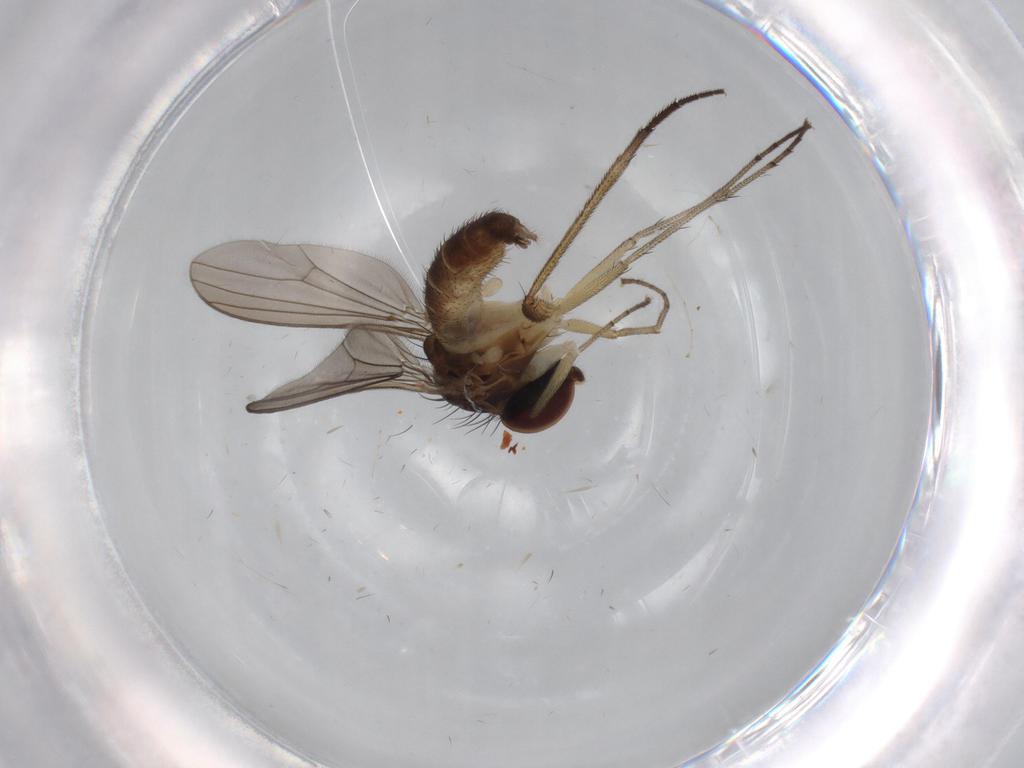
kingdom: Animalia
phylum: Arthropoda
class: Insecta
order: Diptera
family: Dolichopodidae
